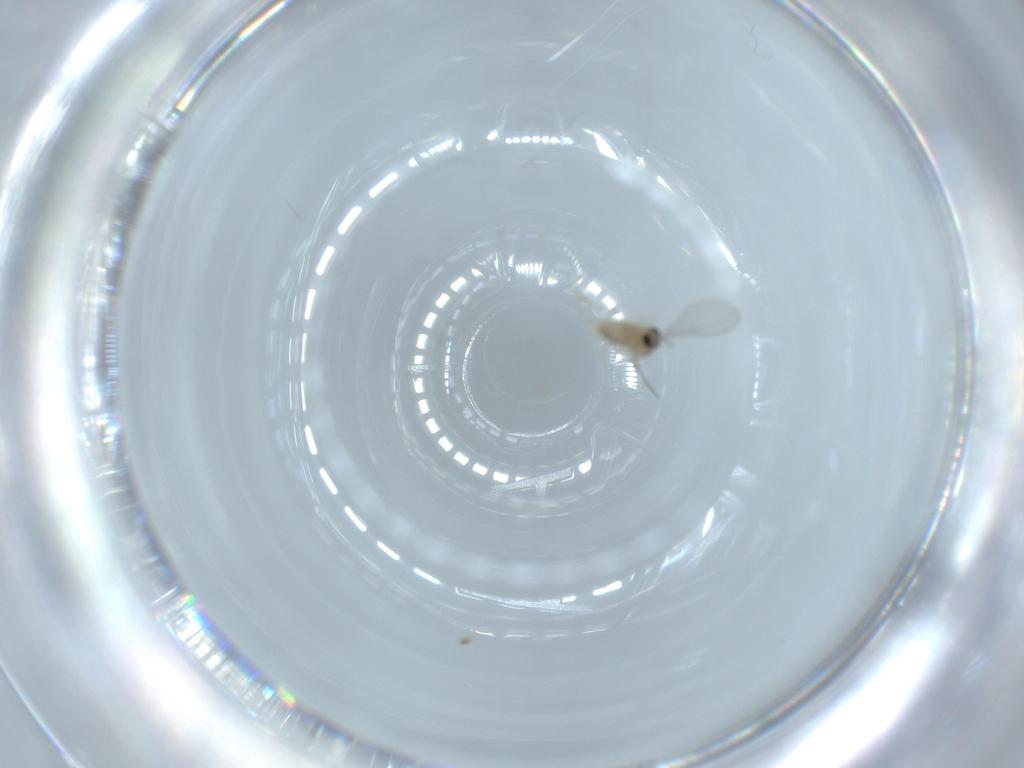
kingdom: Animalia
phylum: Arthropoda
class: Insecta
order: Diptera
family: Cecidomyiidae
